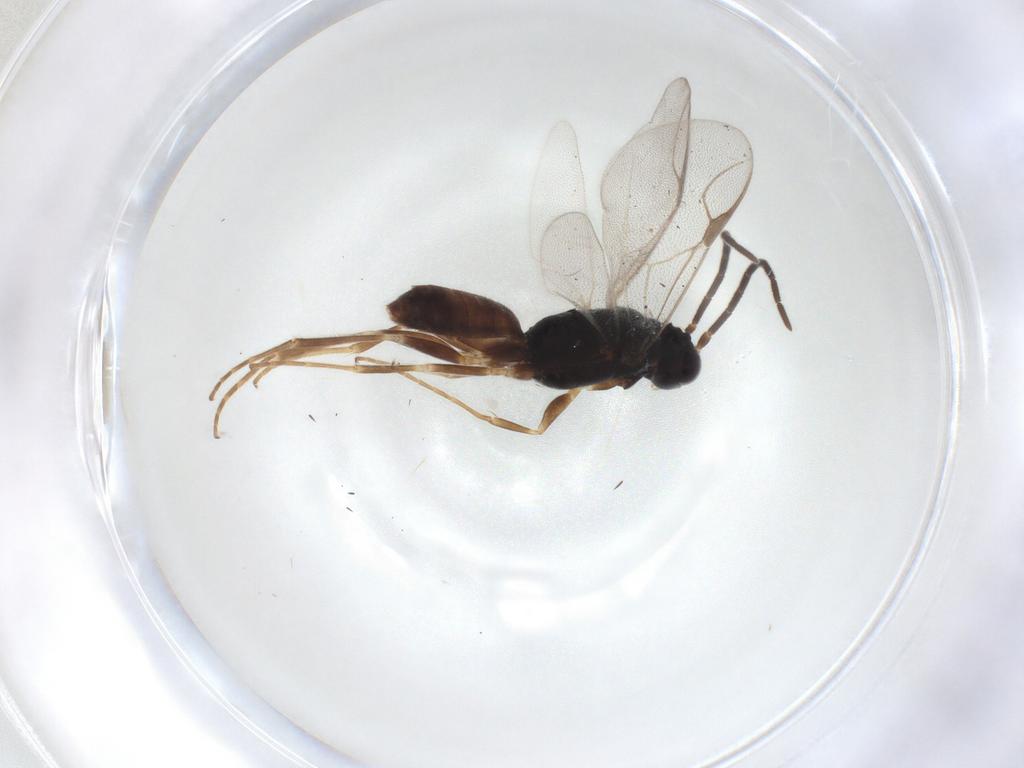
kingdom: Animalia
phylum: Arthropoda
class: Insecta
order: Hymenoptera
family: Dryinidae
